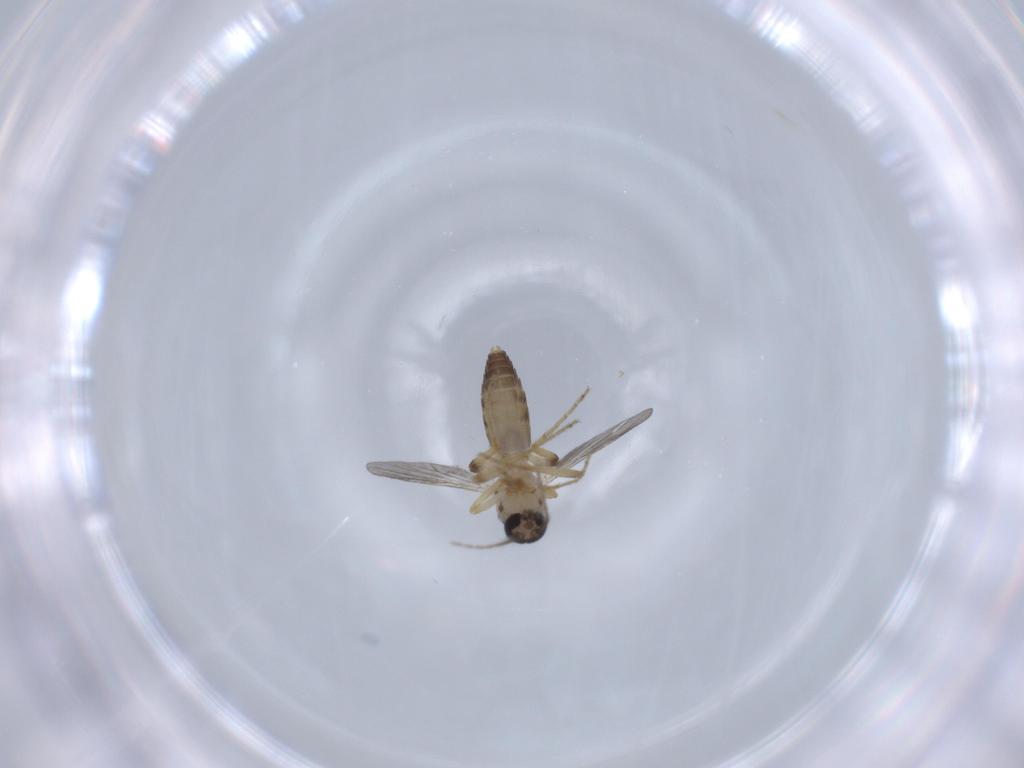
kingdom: Animalia
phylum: Arthropoda
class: Insecta
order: Diptera
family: Ceratopogonidae
